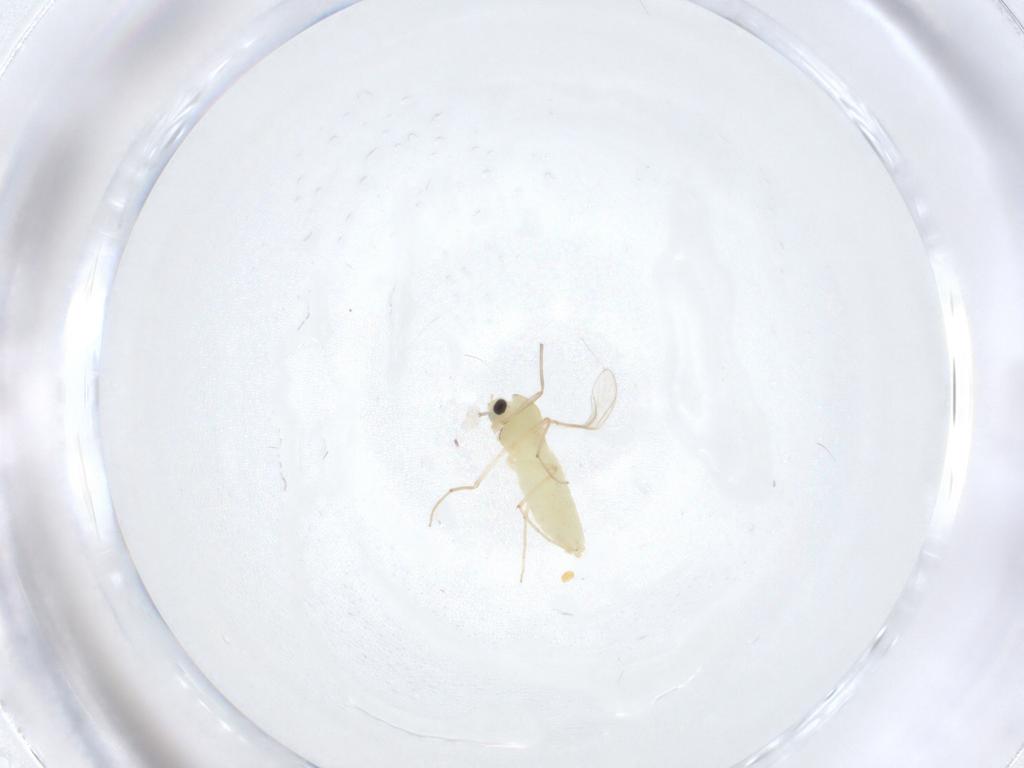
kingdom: Animalia
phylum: Arthropoda
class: Insecta
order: Diptera
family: Chironomidae
